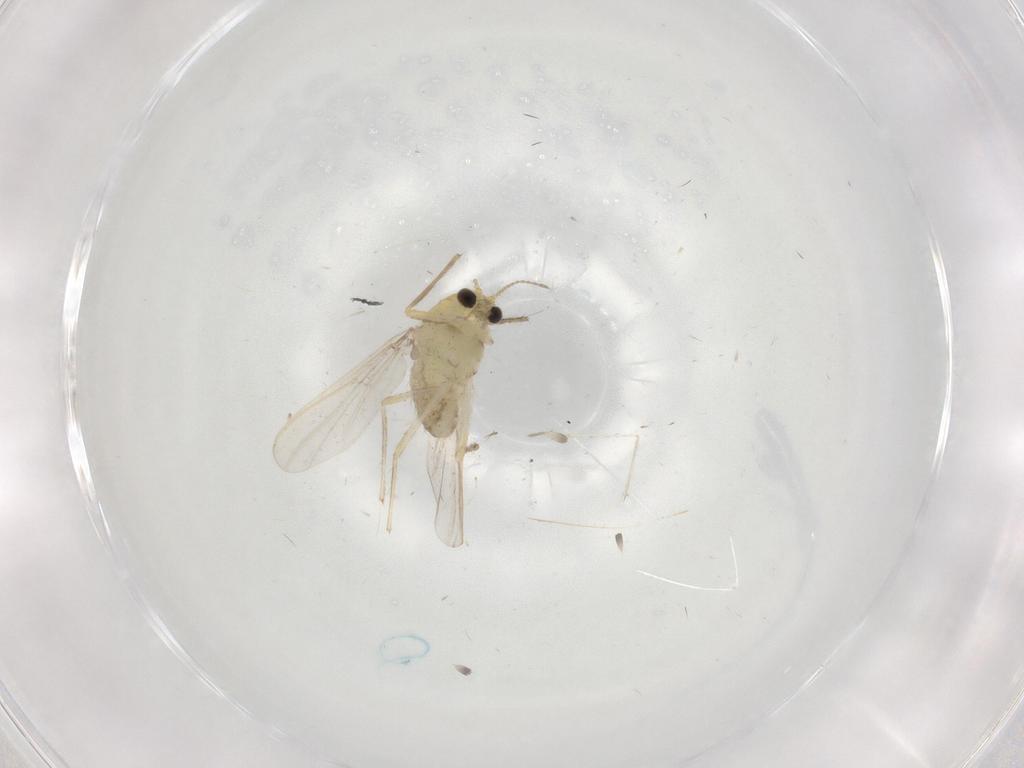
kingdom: Animalia
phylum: Arthropoda
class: Insecta
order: Diptera
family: Chironomidae
